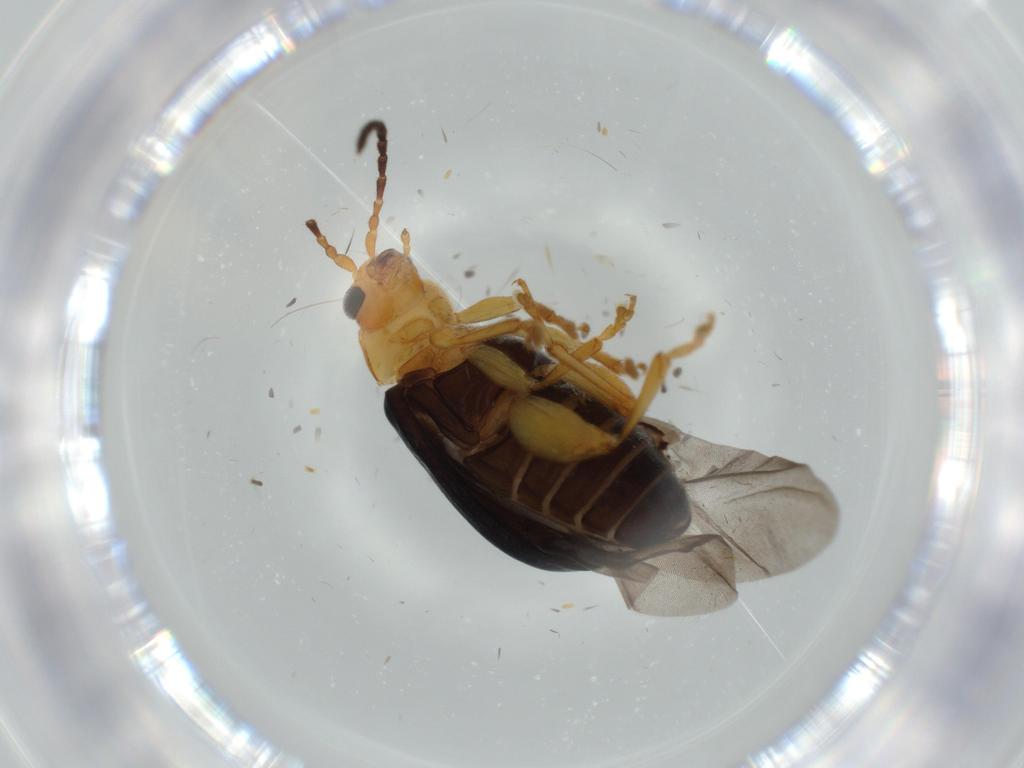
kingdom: Animalia
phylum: Arthropoda
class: Insecta
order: Coleoptera
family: Chrysomelidae
